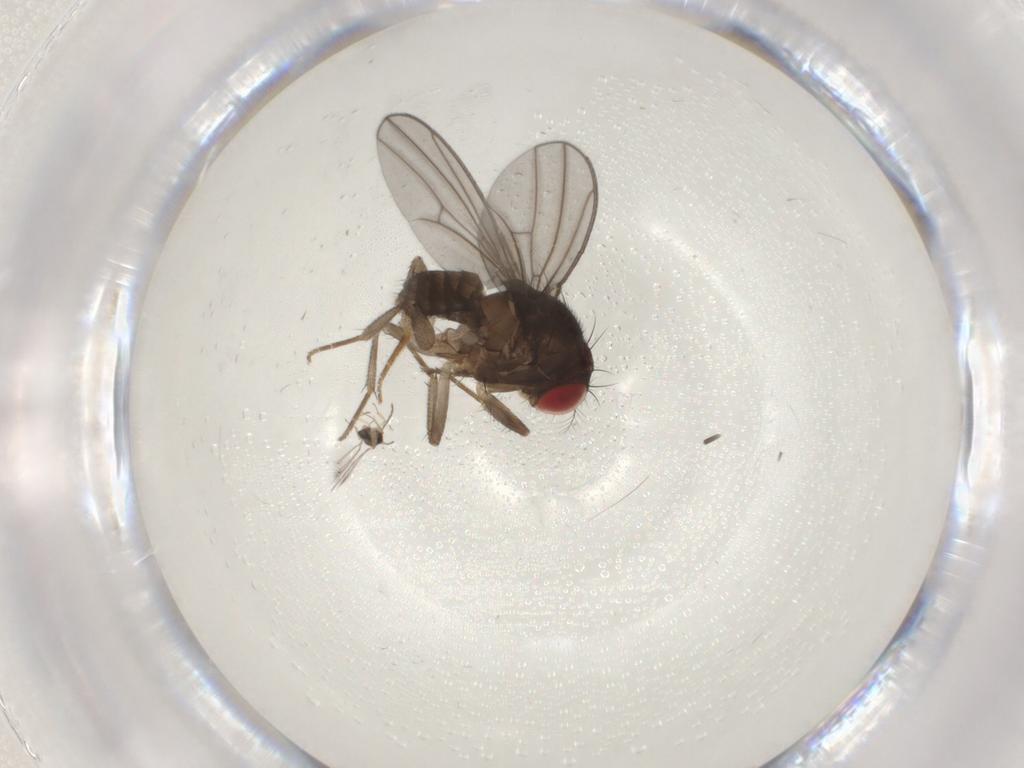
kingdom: Animalia
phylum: Arthropoda
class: Insecta
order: Diptera
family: Drosophilidae
